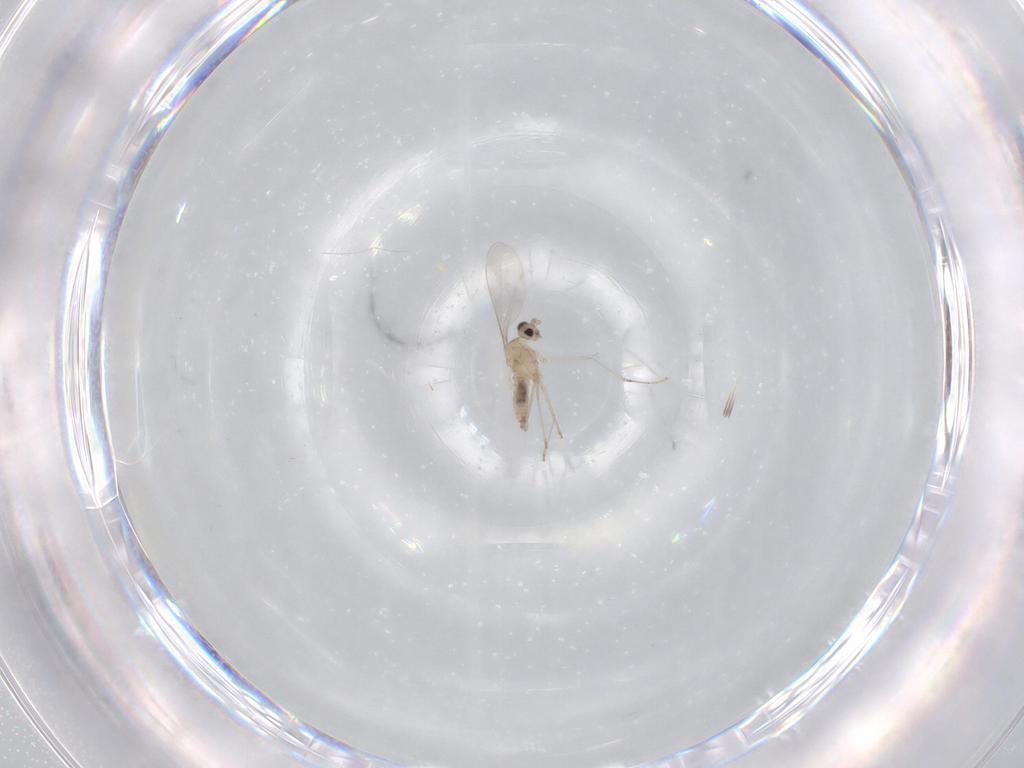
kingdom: Animalia
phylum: Arthropoda
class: Insecta
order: Diptera
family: Cecidomyiidae
